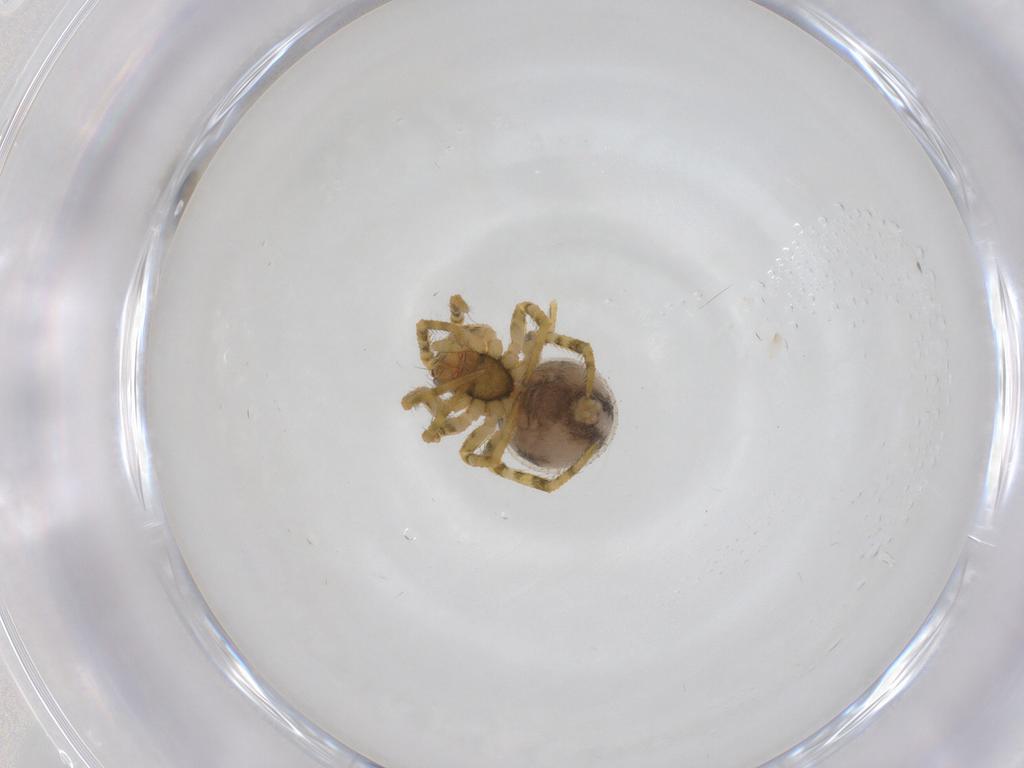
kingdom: Animalia
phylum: Arthropoda
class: Arachnida
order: Araneae
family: Theridiidae
